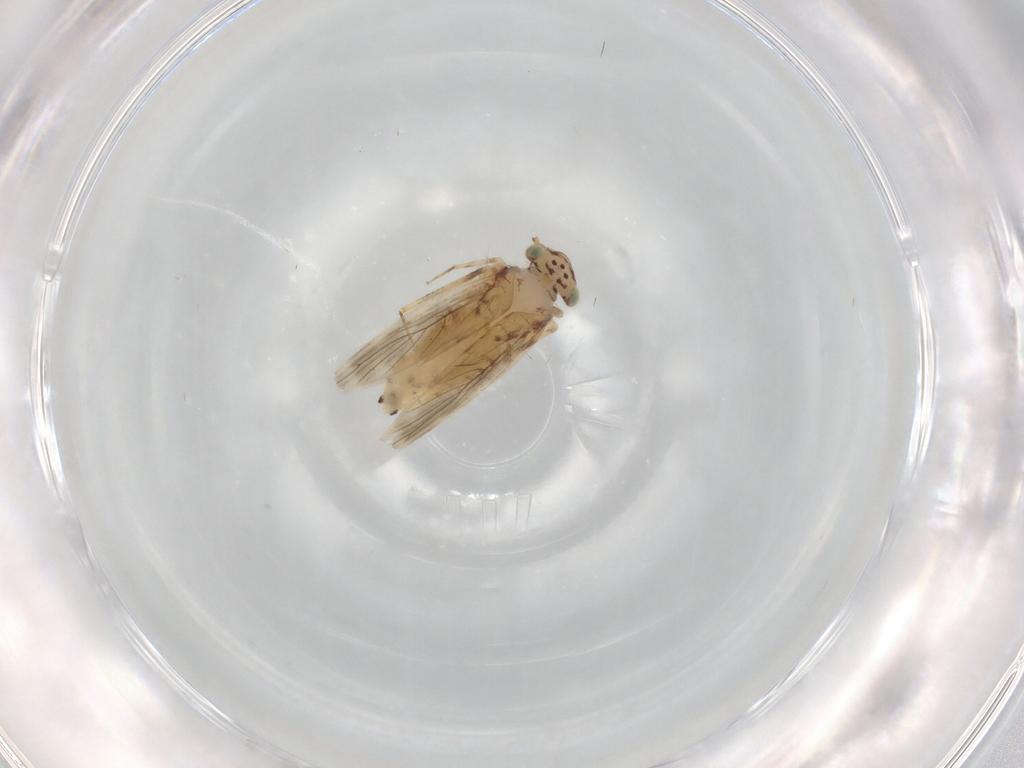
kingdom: Animalia
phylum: Arthropoda
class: Insecta
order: Psocodea
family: Lepidopsocidae
